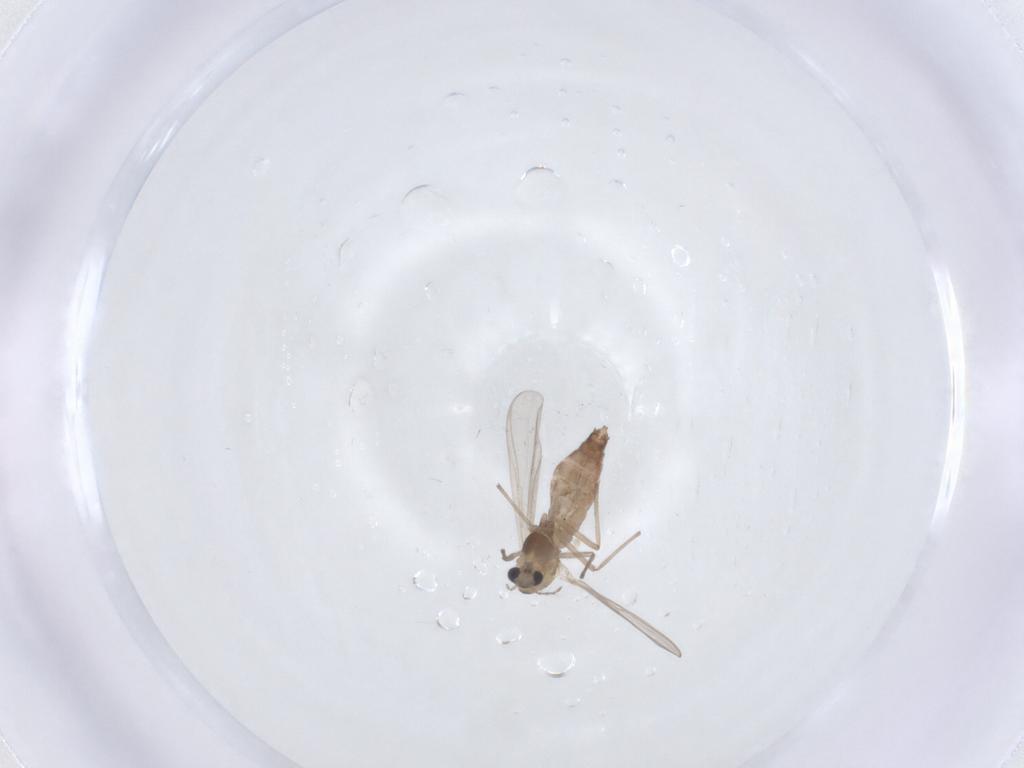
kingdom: Animalia
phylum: Arthropoda
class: Insecta
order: Diptera
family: Chironomidae
